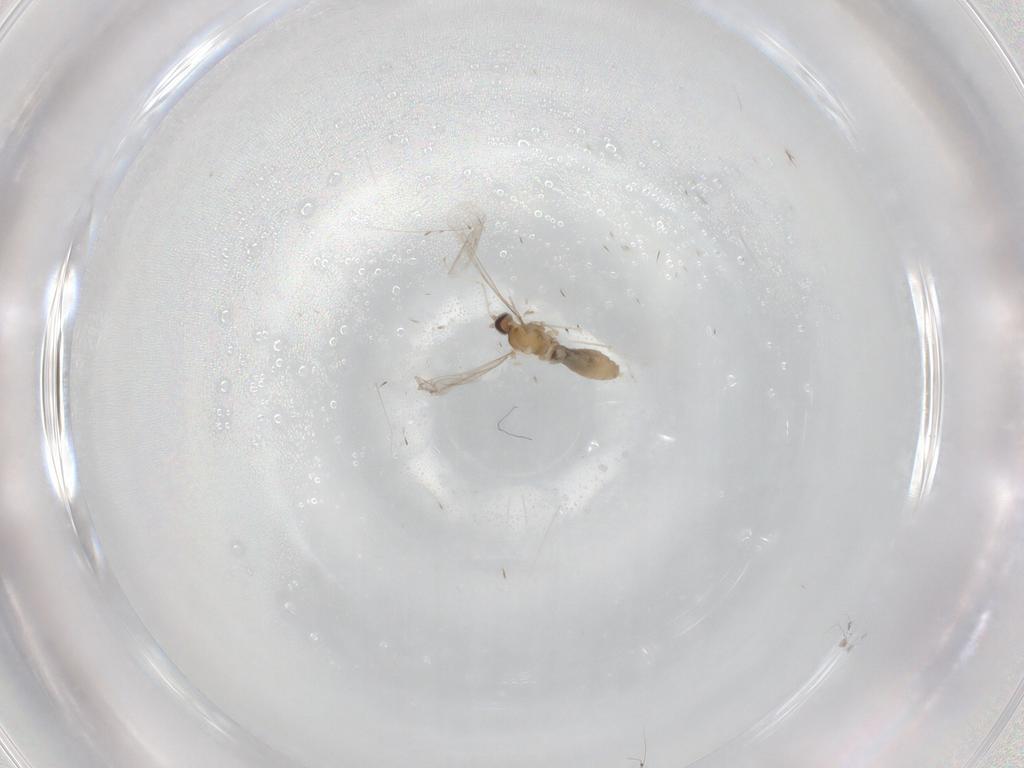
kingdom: Animalia
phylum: Arthropoda
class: Insecta
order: Diptera
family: Cecidomyiidae
